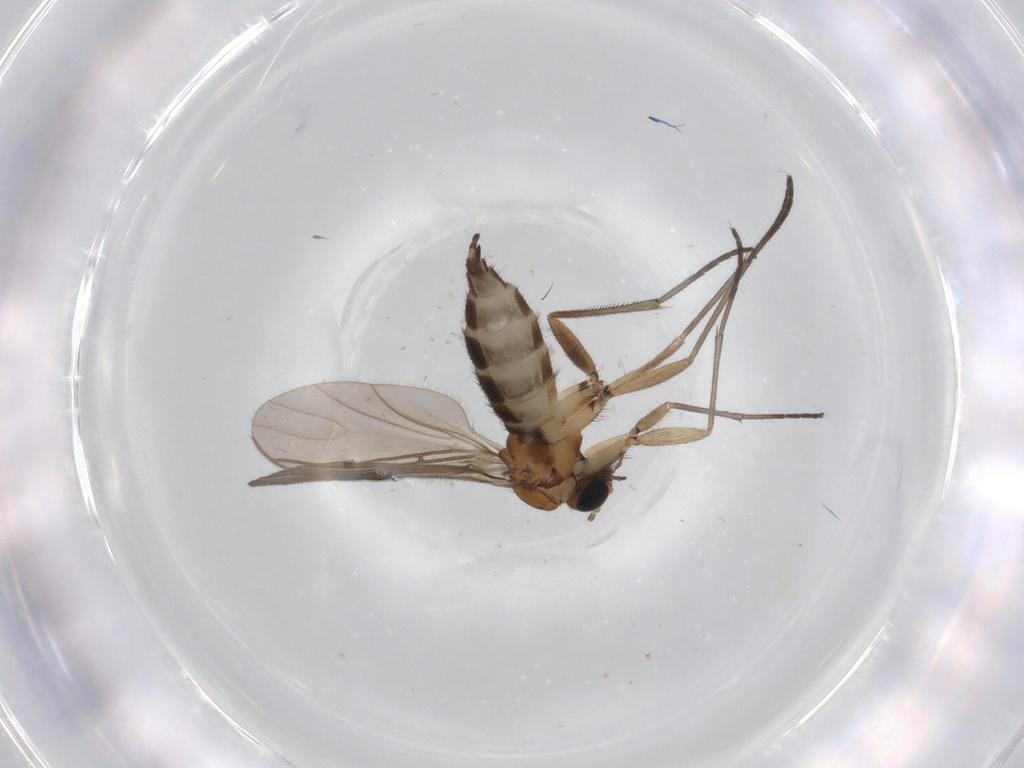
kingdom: Animalia
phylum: Arthropoda
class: Insecta
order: Diptera
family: Sciaridae
